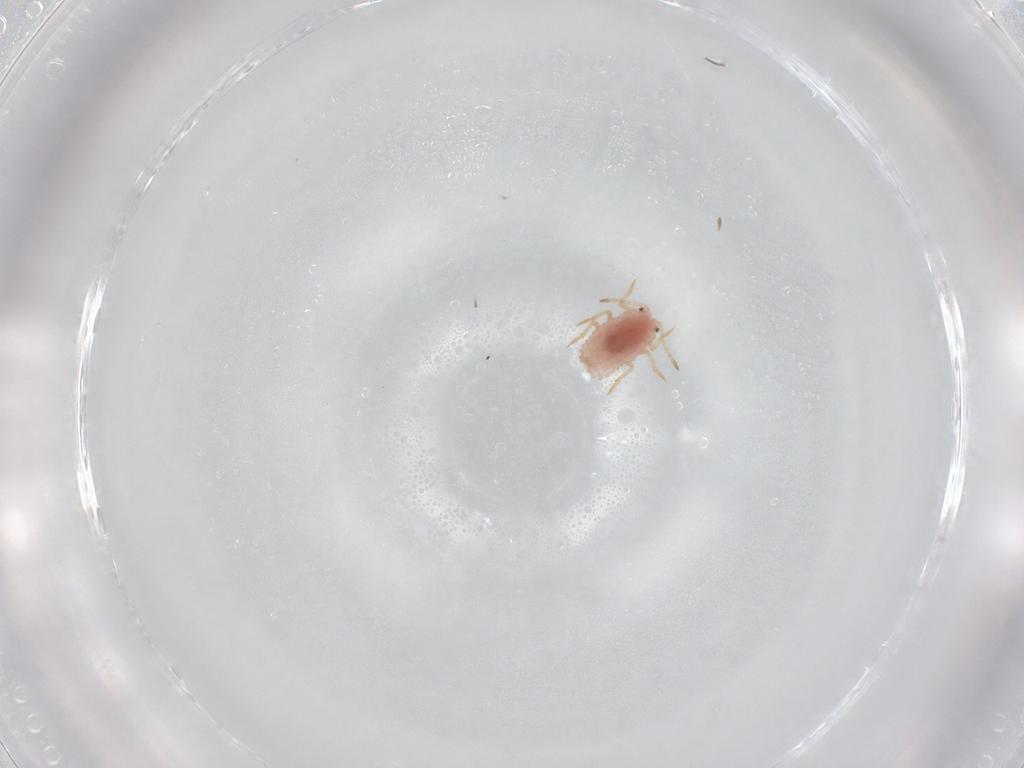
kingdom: Animalia
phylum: Arthropoda
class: Insecta
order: Hemiptera
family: Coccoidea_incertae_sedis
